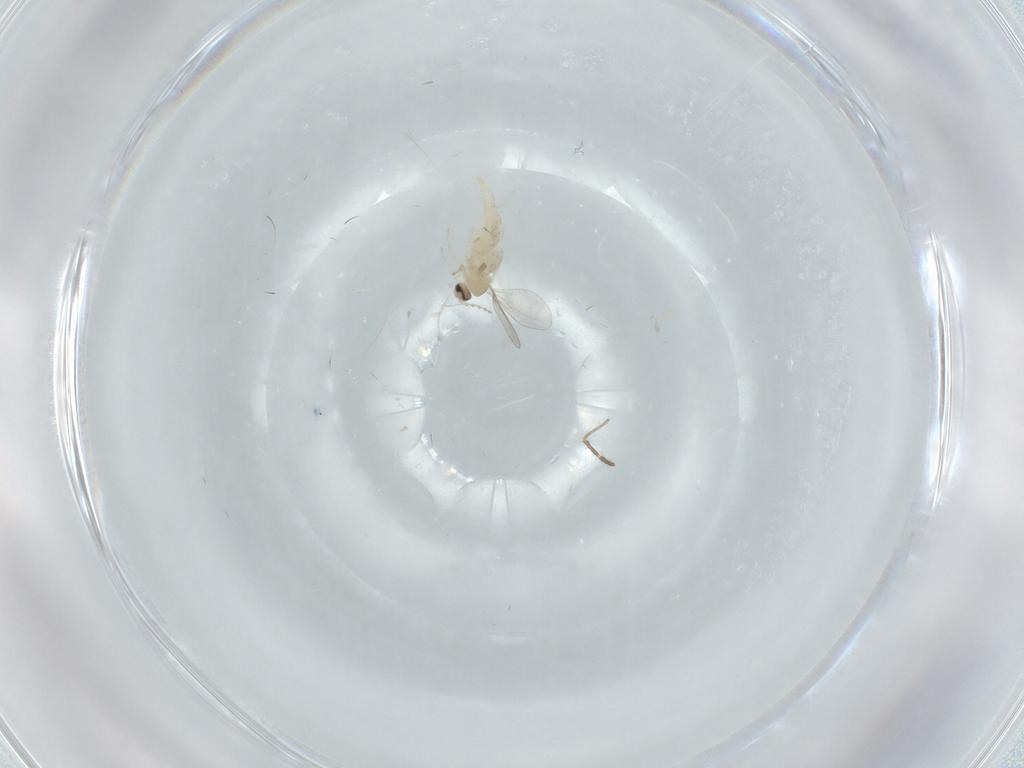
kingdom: Animalia
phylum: Arthropoda
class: Insecta
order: Diptera
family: Cecidomyiidae
